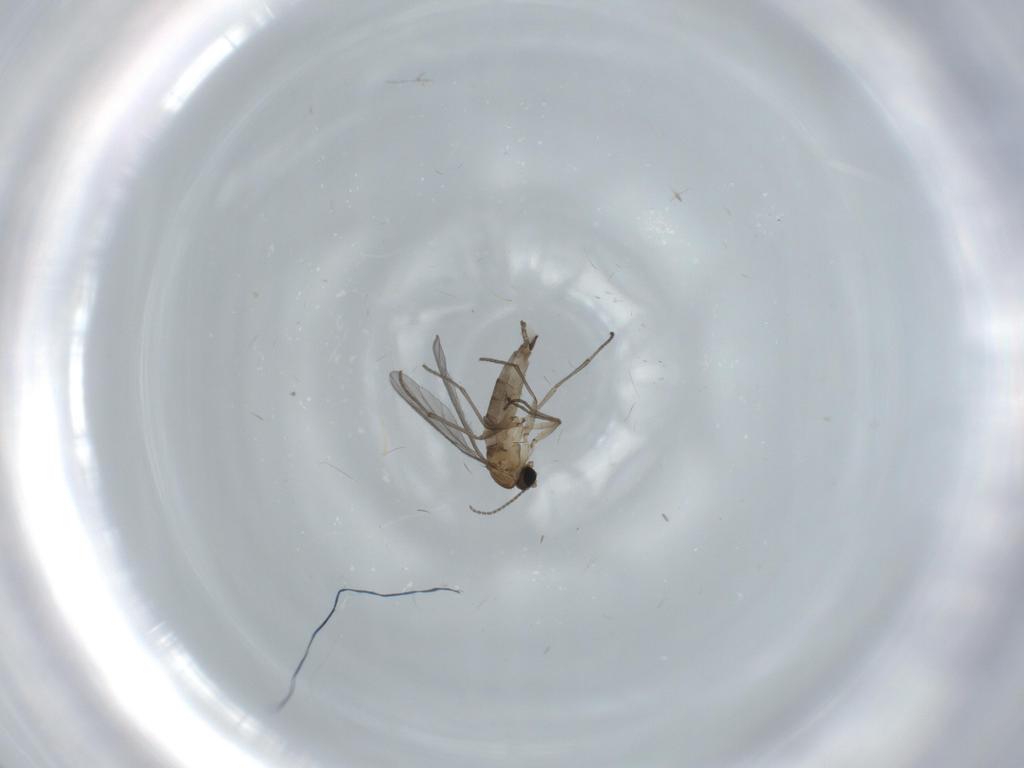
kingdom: Animalia
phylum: Arthropoda
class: Insecta
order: Diptera
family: Sciaridae
